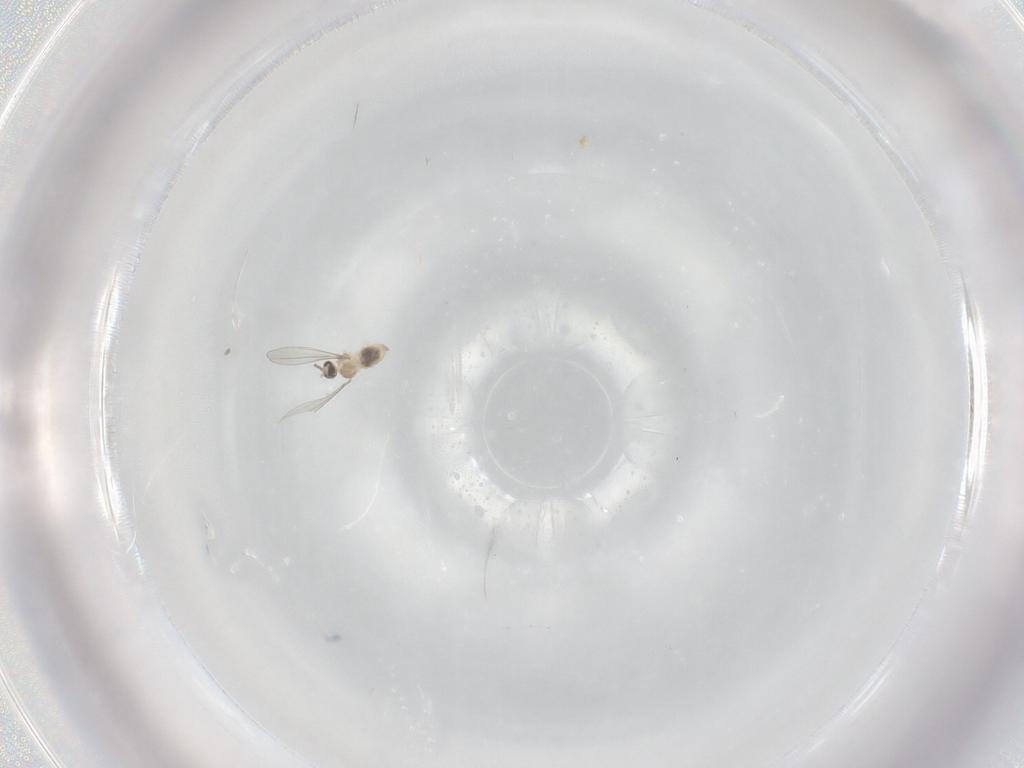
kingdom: Animalia
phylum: Arthropoda
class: Insecta
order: Diptera
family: Cecidomyiidae
